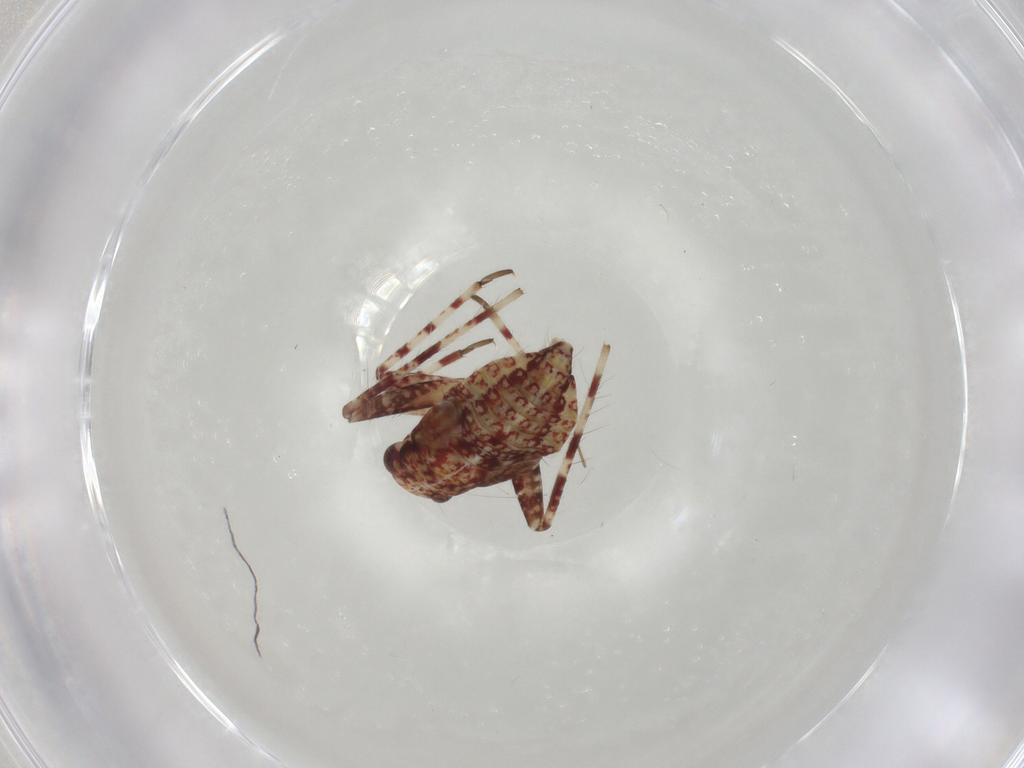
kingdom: Animalia
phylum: Arthropoda
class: Insecta
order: Hemiptera
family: Miridae
